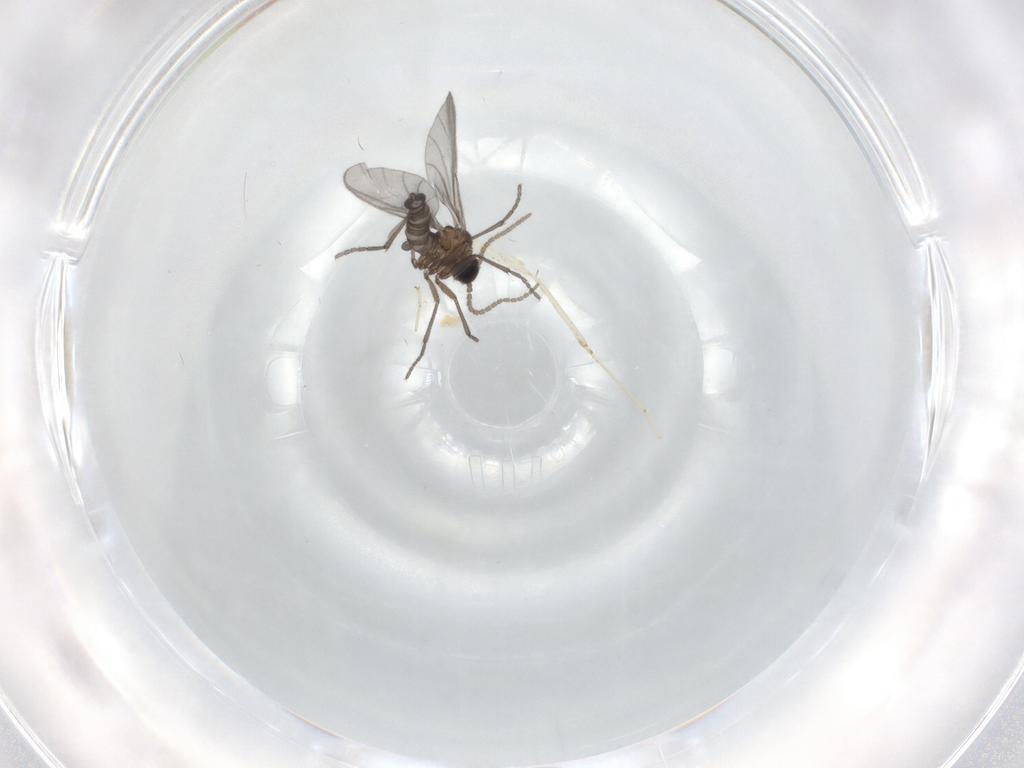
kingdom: Animalia
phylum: Arthropoda
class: Insecta
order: Diptera
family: Sciaridae
